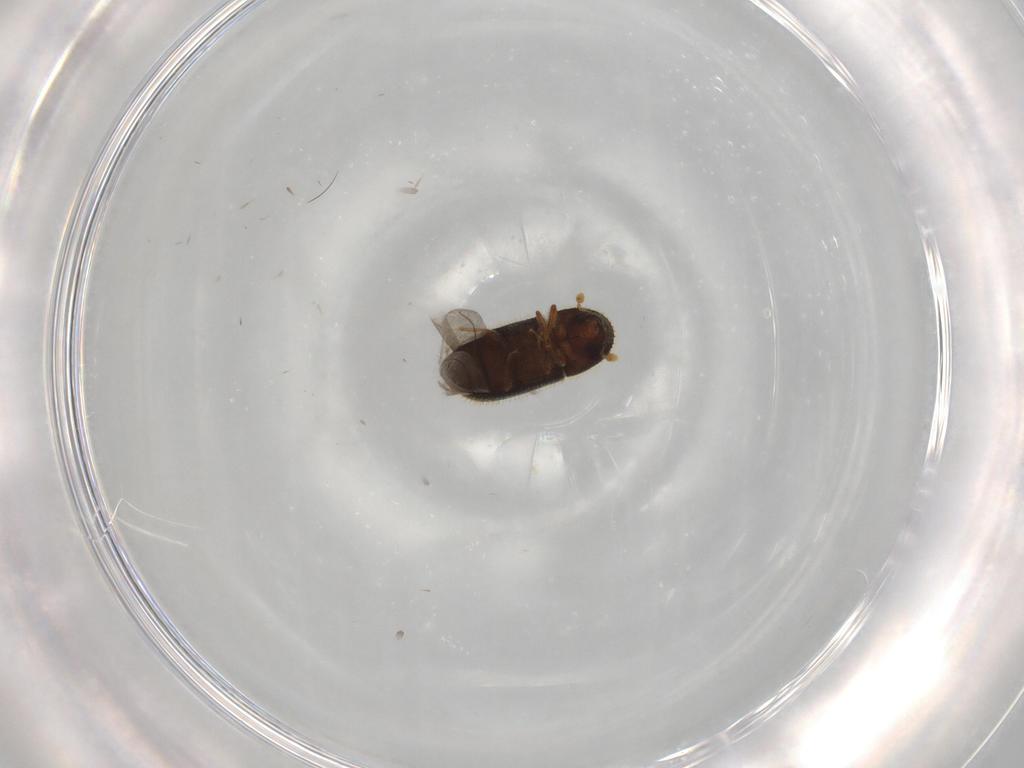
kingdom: Animalia
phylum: Arthropoda
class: Insecta
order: Coleoptera
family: Curculionidae
